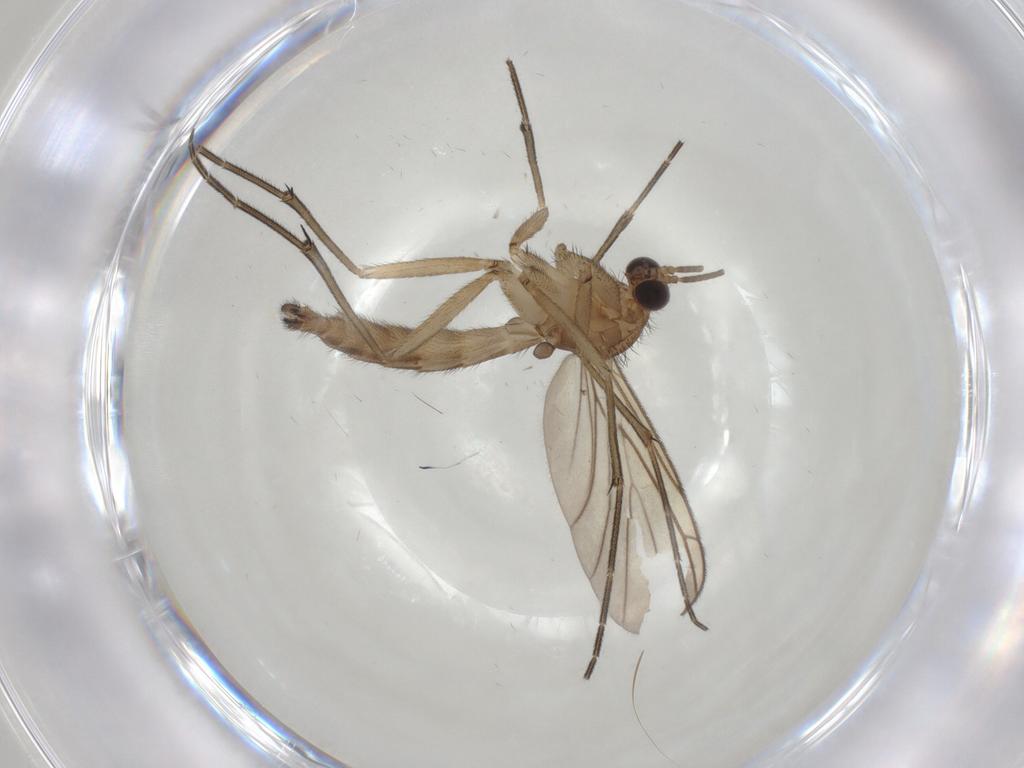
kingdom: Animalia
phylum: Arthropoda
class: Insecta
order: Diptera
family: Keroplatidae
